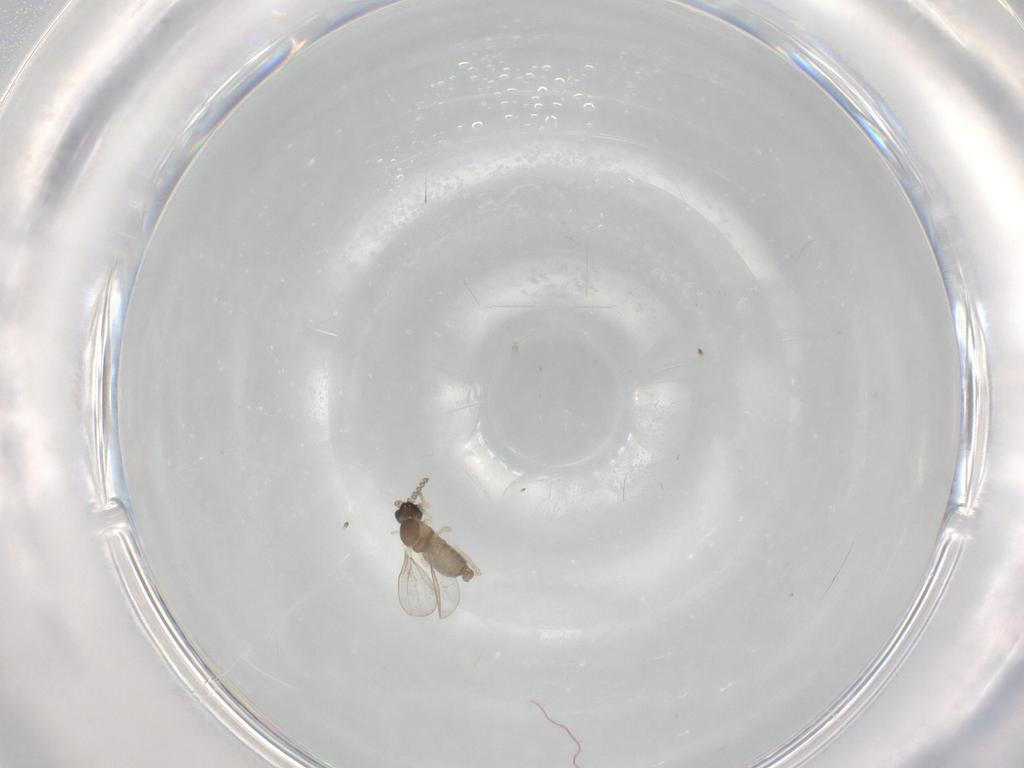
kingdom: Animalia
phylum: Arthropoda
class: Insecta
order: Diptera
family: Cecidomyiidae
